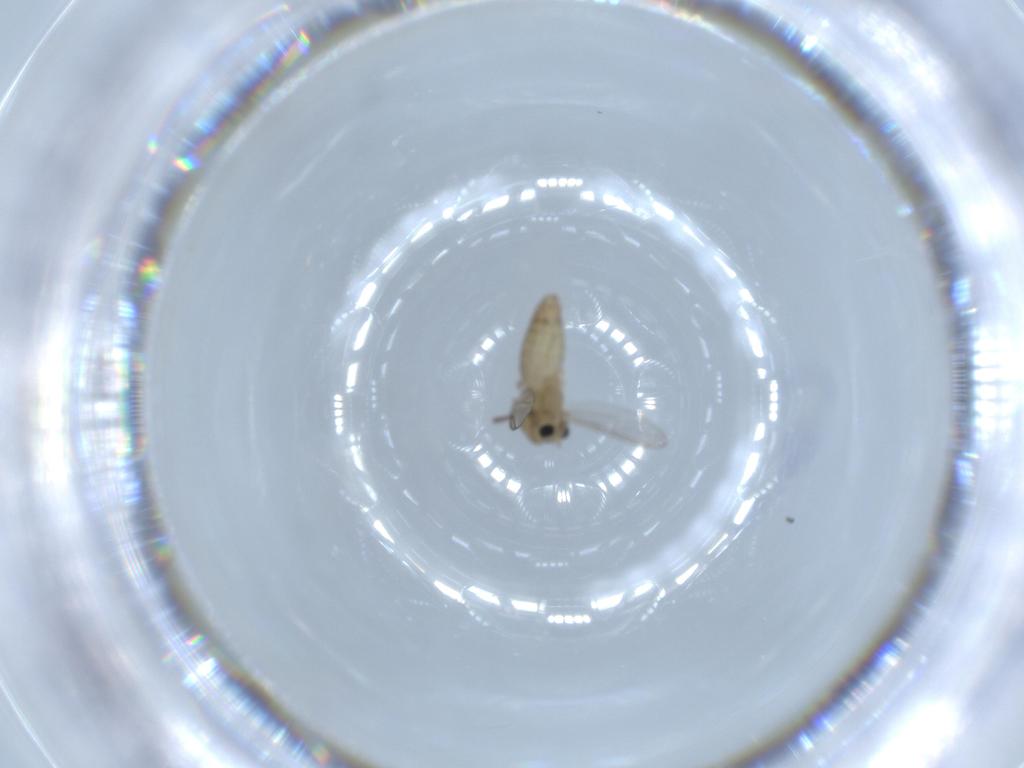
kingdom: Animalia
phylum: Arthropoda
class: Insecta
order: Diptera
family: Chironomidae
